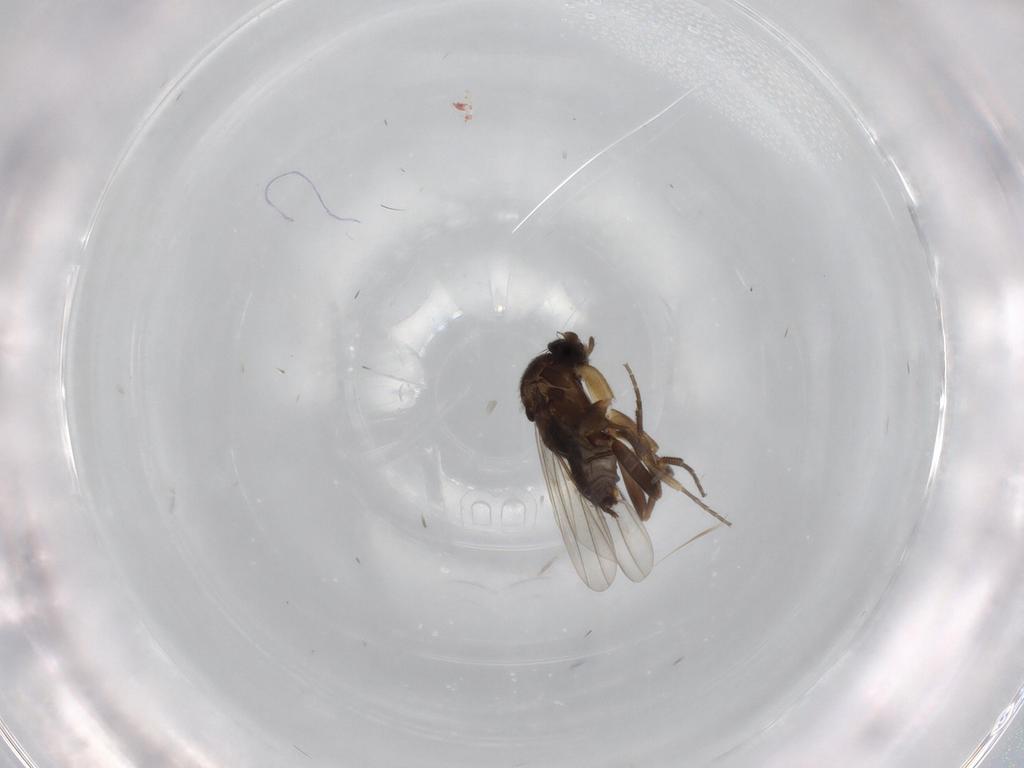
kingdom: Animalia
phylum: Arthropoda
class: Insecta
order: Diptera
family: Phoridae
